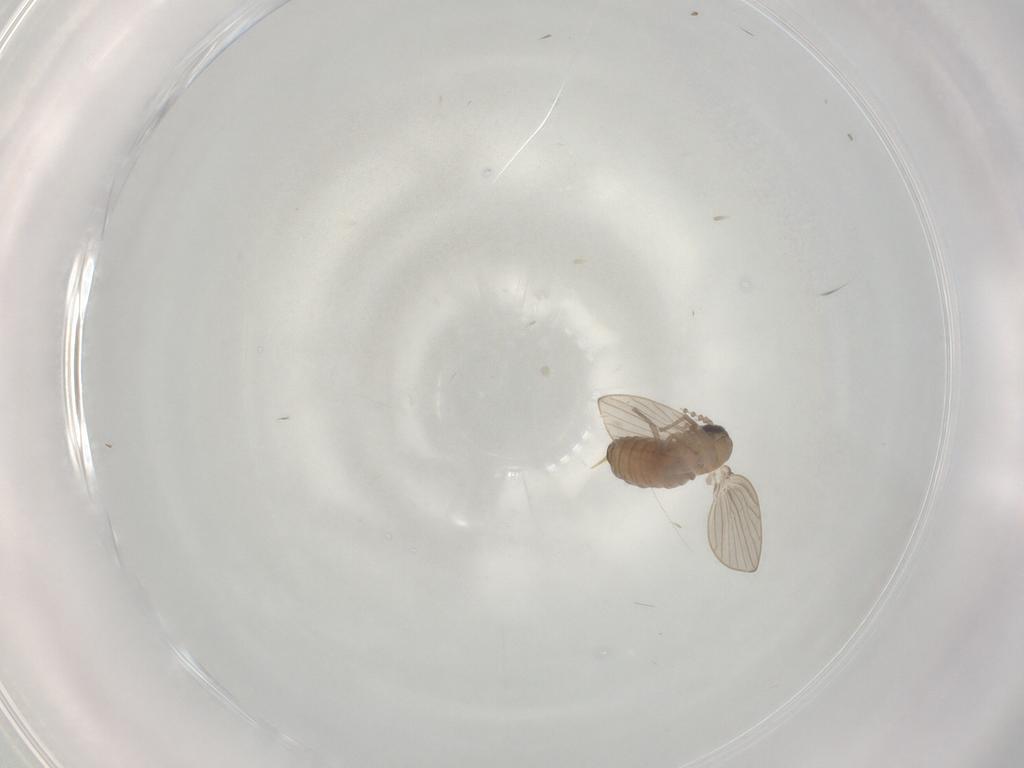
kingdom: Animalia
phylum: Arthropoda
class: Insecta
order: Diptera
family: Psychodidae
